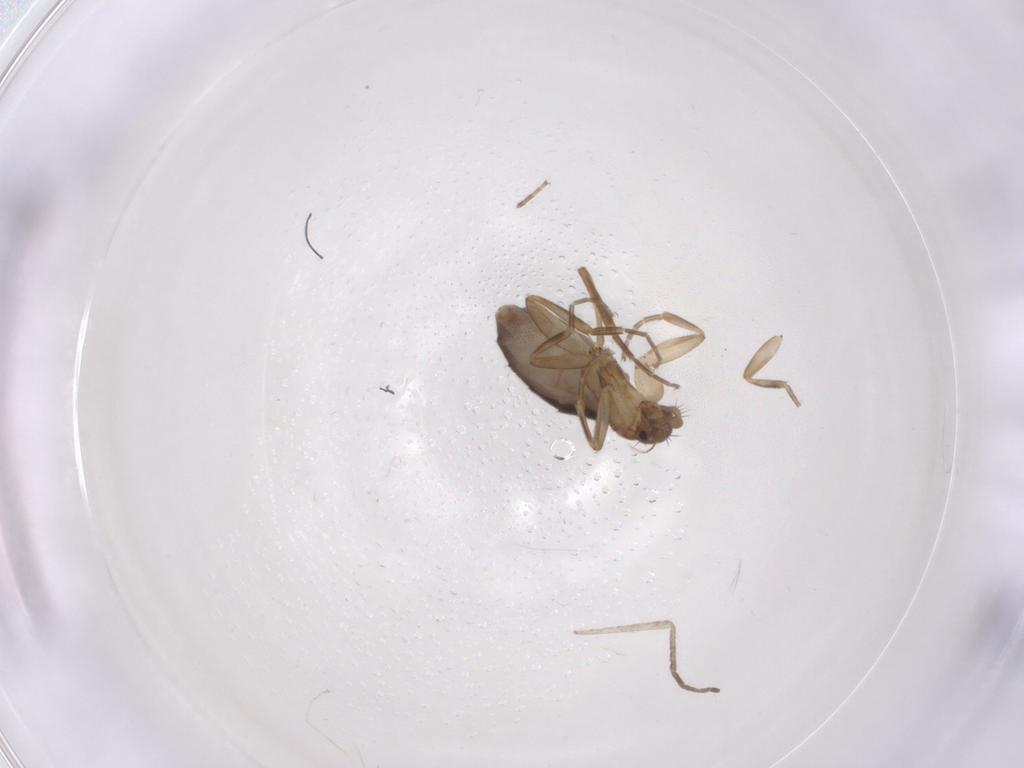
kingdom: Animalia
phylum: Arthropoda
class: Insecta
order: Diptera
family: Phoridae
